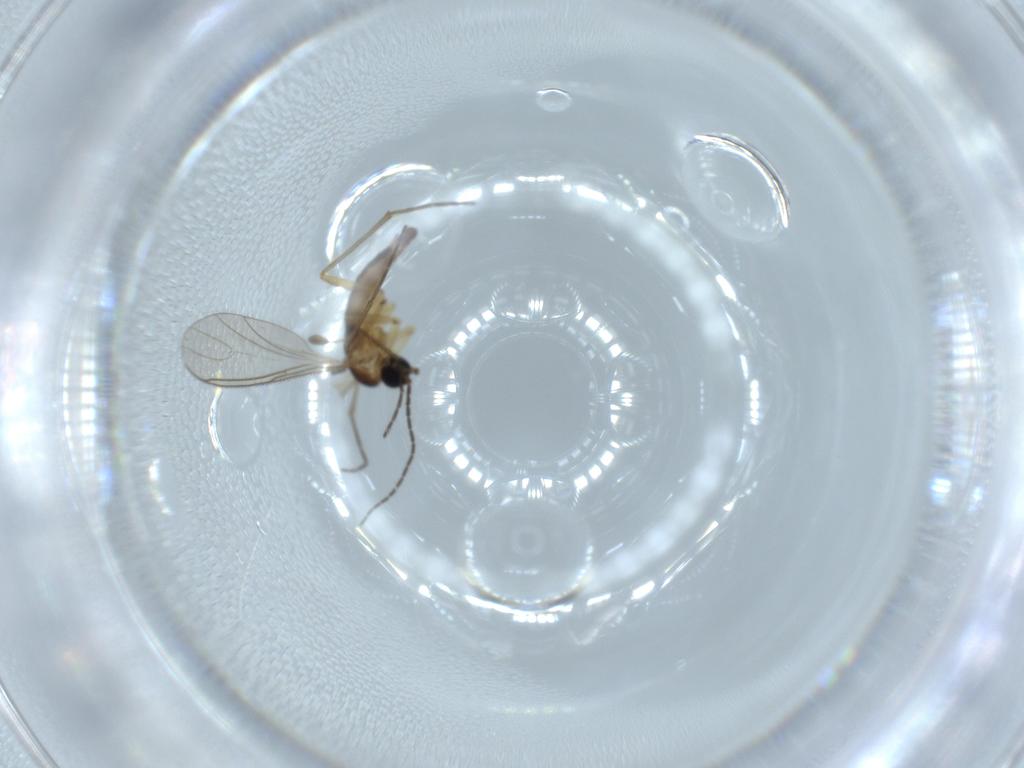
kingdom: Animalia
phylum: Arthropoda
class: Insecta
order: Diptera
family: Sciaridae
